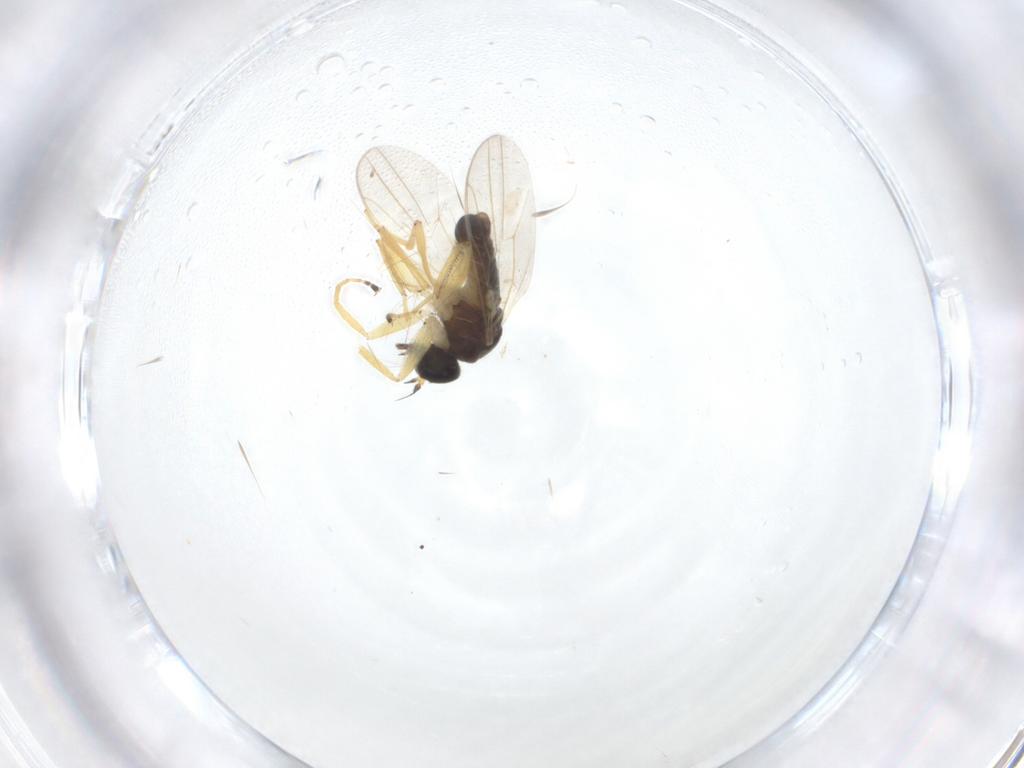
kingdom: Animalia
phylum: Arthropoda
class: Insecta
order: Diptera
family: Hybotidae
